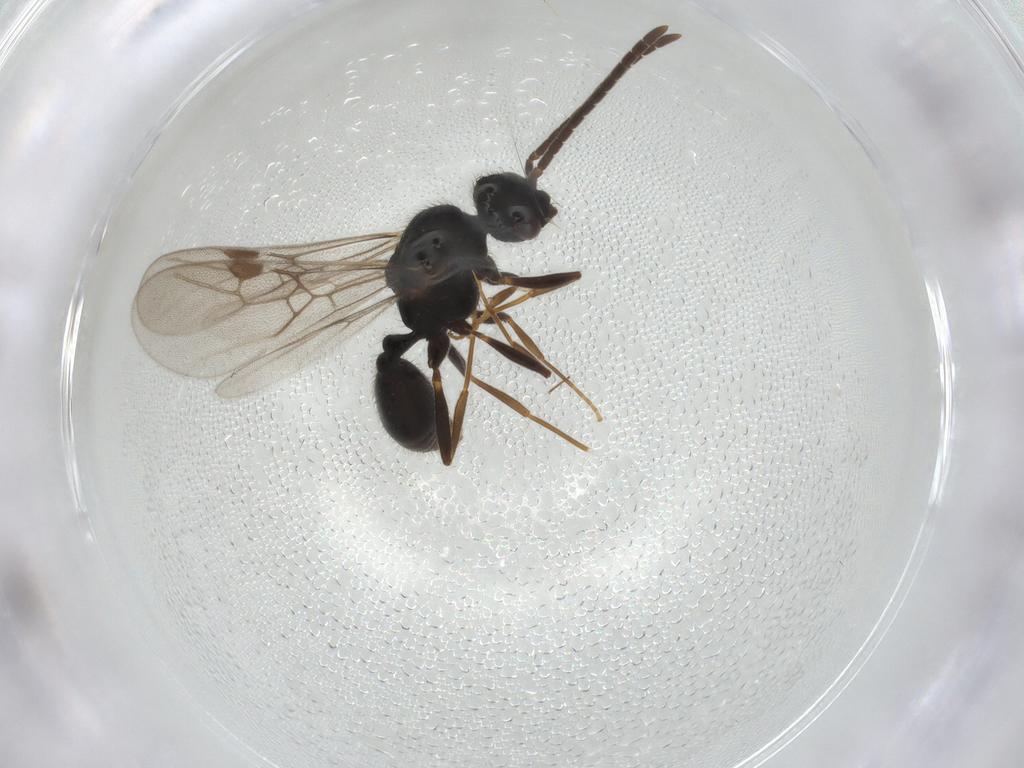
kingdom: Animalia
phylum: Arthropoda
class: Insecta
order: Hymenoptera
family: Formicidae
